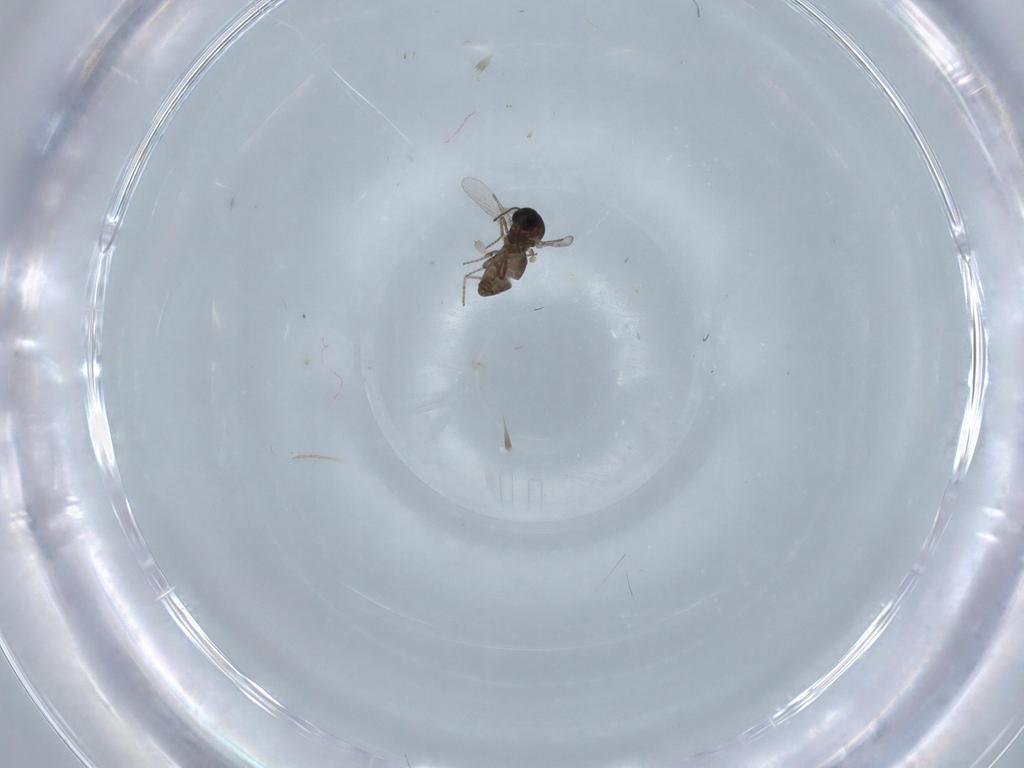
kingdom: Animalia
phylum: Arthropoda
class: Insecta
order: Diptera
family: Ceratopogonidae
